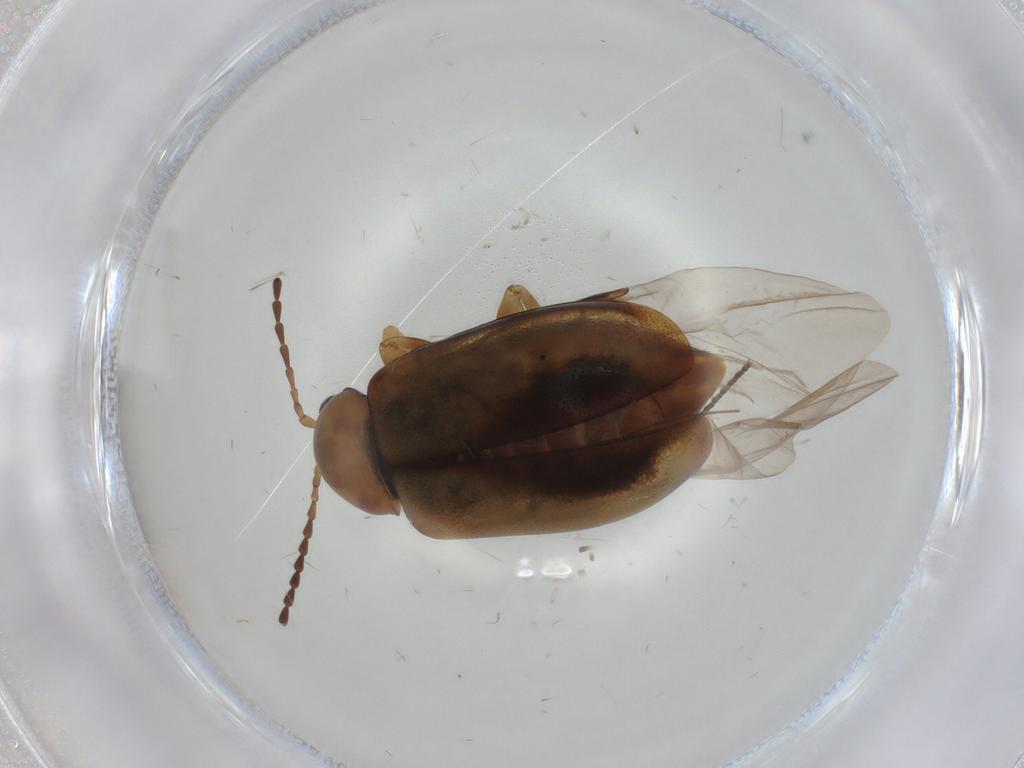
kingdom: Animalia
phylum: Arthropoda
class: Insecta
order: Coleoptera
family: Chrysomelidae
